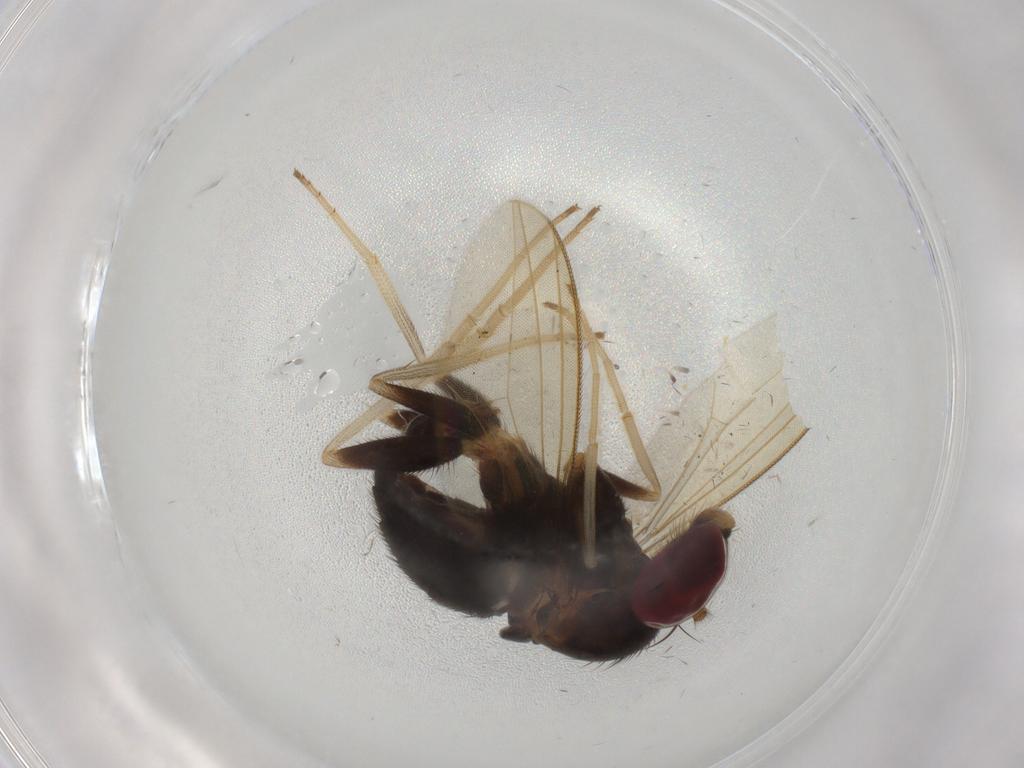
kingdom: Animalia
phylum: Arthropoda
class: Insecta
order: Diptera
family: Dolichopodidae
